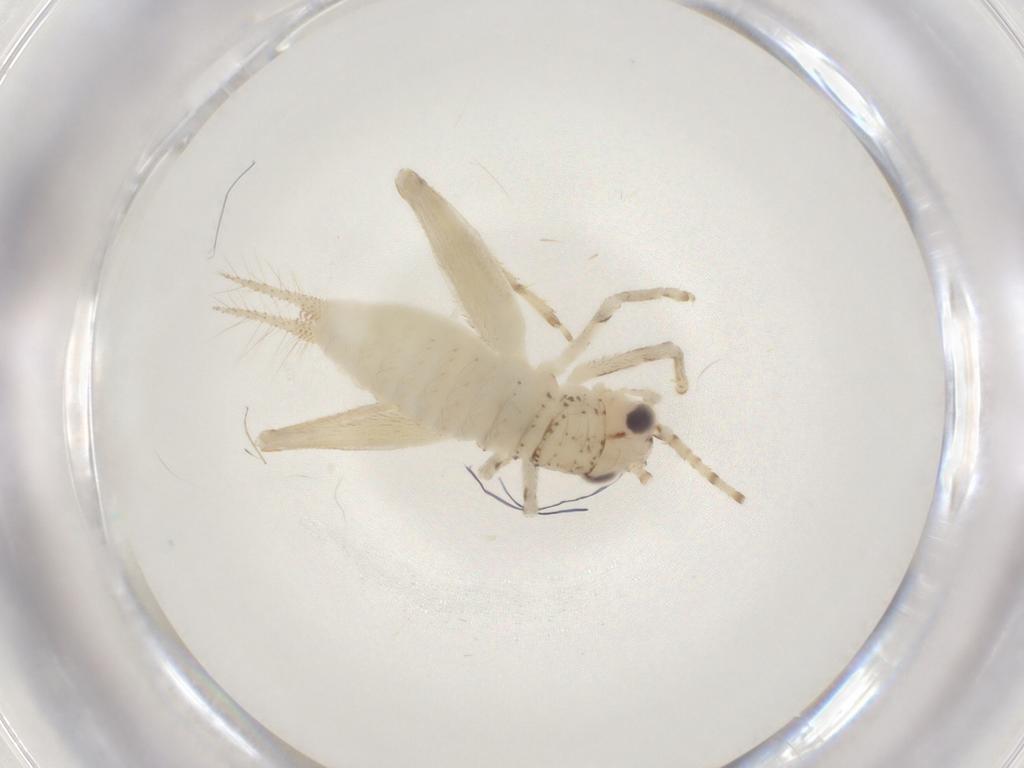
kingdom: Animalia
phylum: Arthropoda
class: Insecta
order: Orthoptera
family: Trigonidiidae
